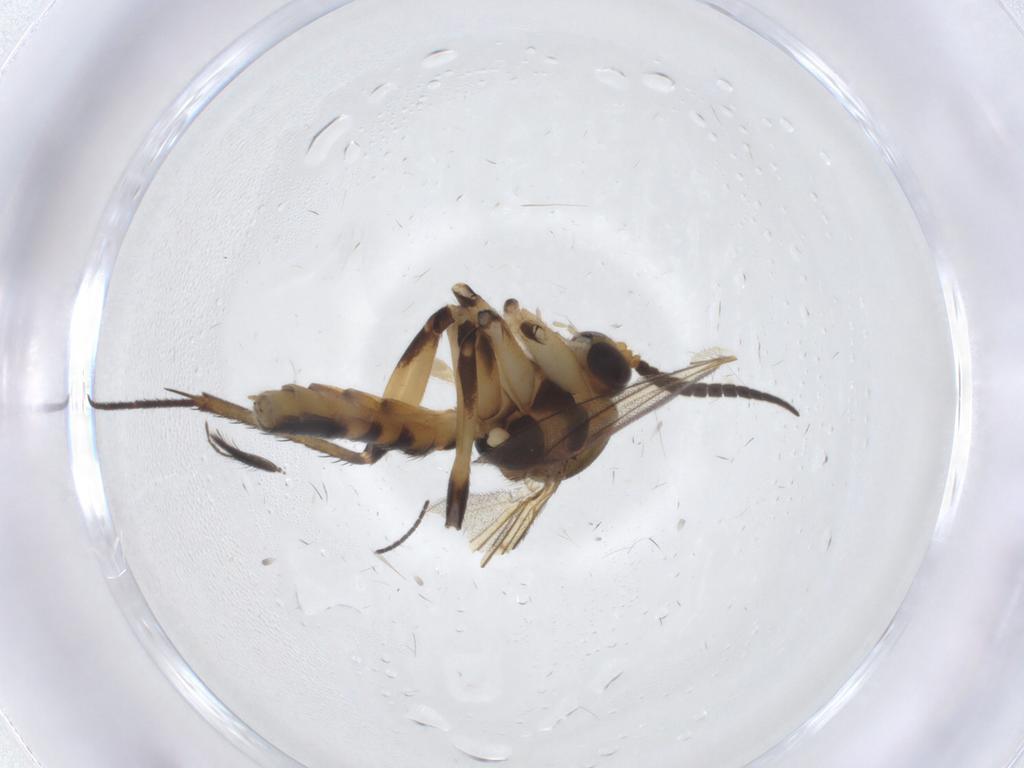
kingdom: Animalia
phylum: Arthropoda
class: Insecta
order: Diptera
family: Mycetophilidae
